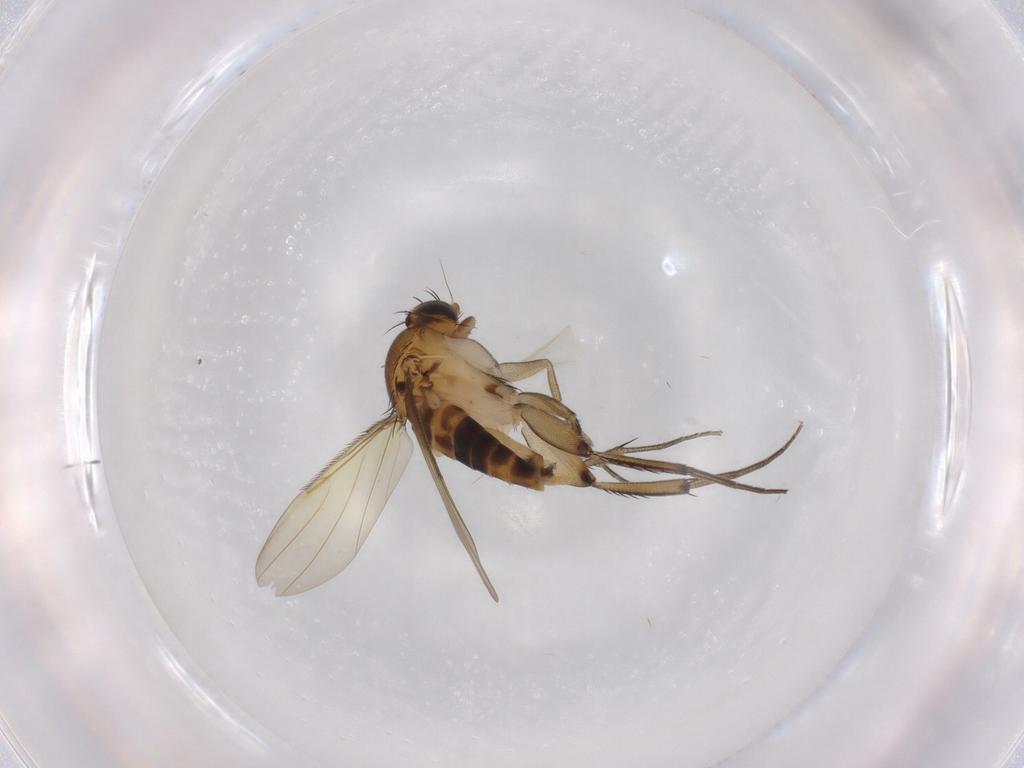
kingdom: Animalia
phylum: Arthropoda
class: Insecta
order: Diptera
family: Phoridae
